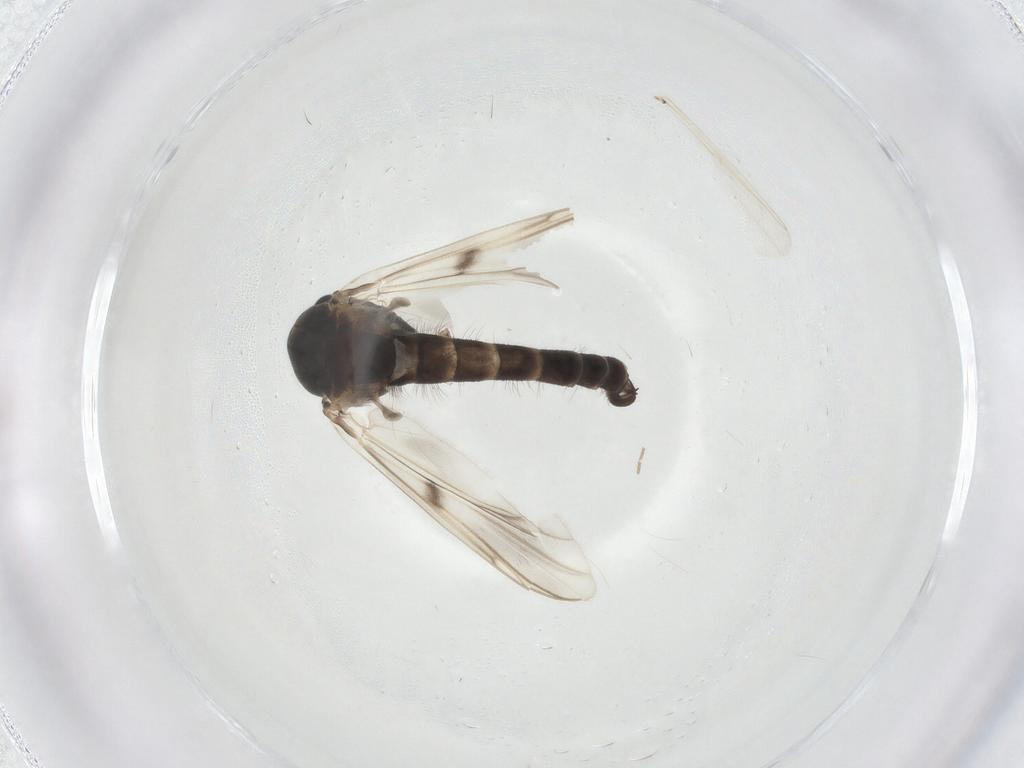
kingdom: Animalia
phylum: Arthropoda
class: Insecta
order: Diptera
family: Chironomidae
